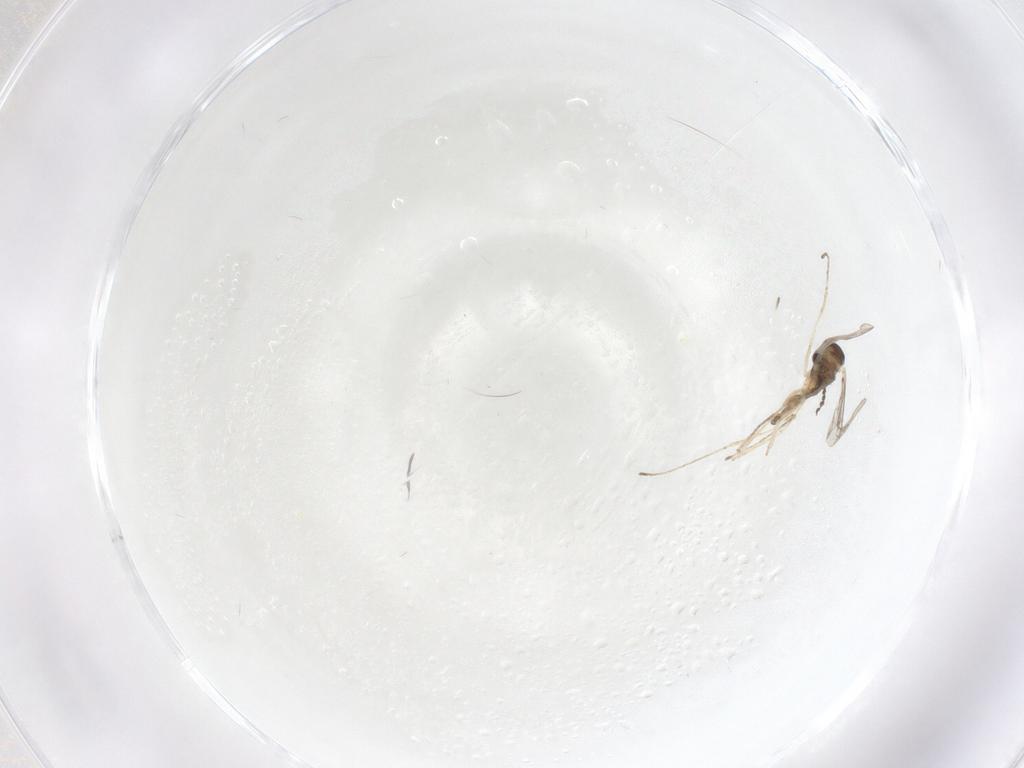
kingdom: Animalia
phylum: Arthropoda
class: Insecta
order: Diptera
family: Cecidomyiidae
